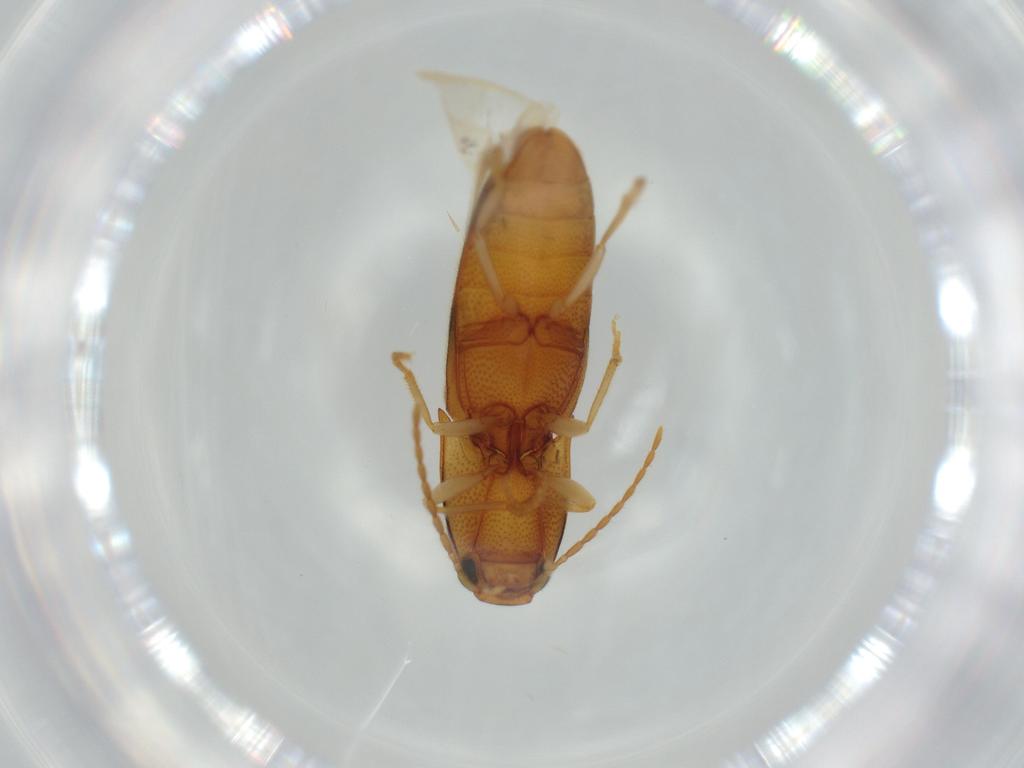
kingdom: Animalia
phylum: Arthropoda
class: Insecta
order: Coleoptera
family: Elateridae
